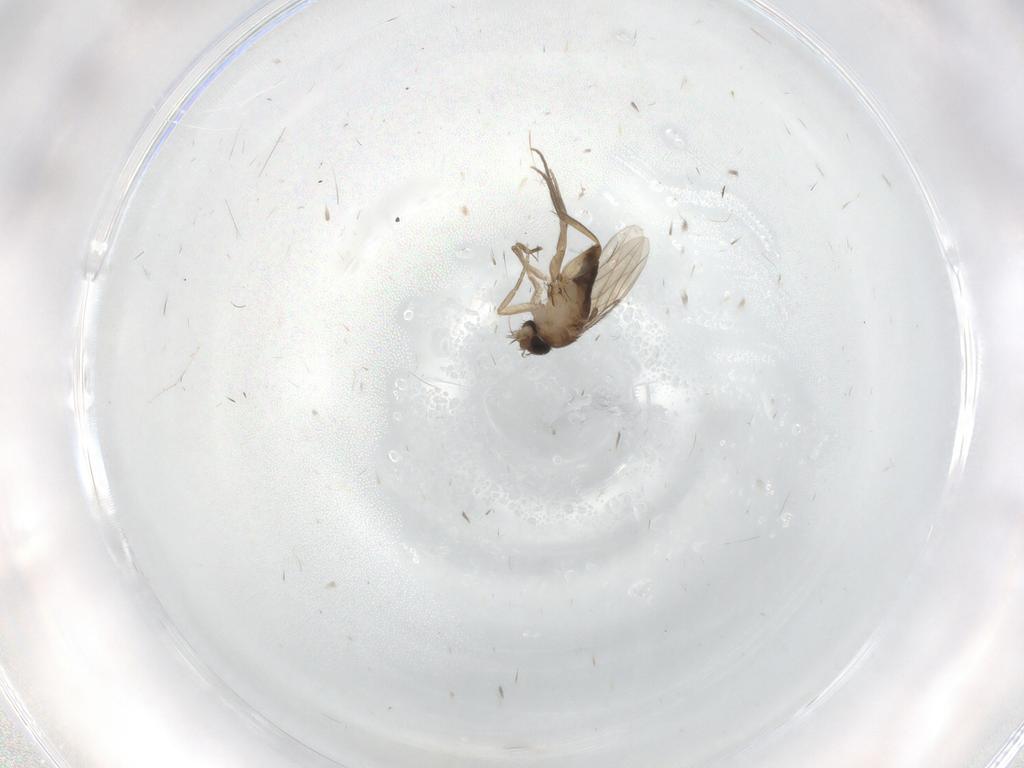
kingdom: Animalia
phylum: Arthropoda
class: Insecta
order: Diptera
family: Phoridae
